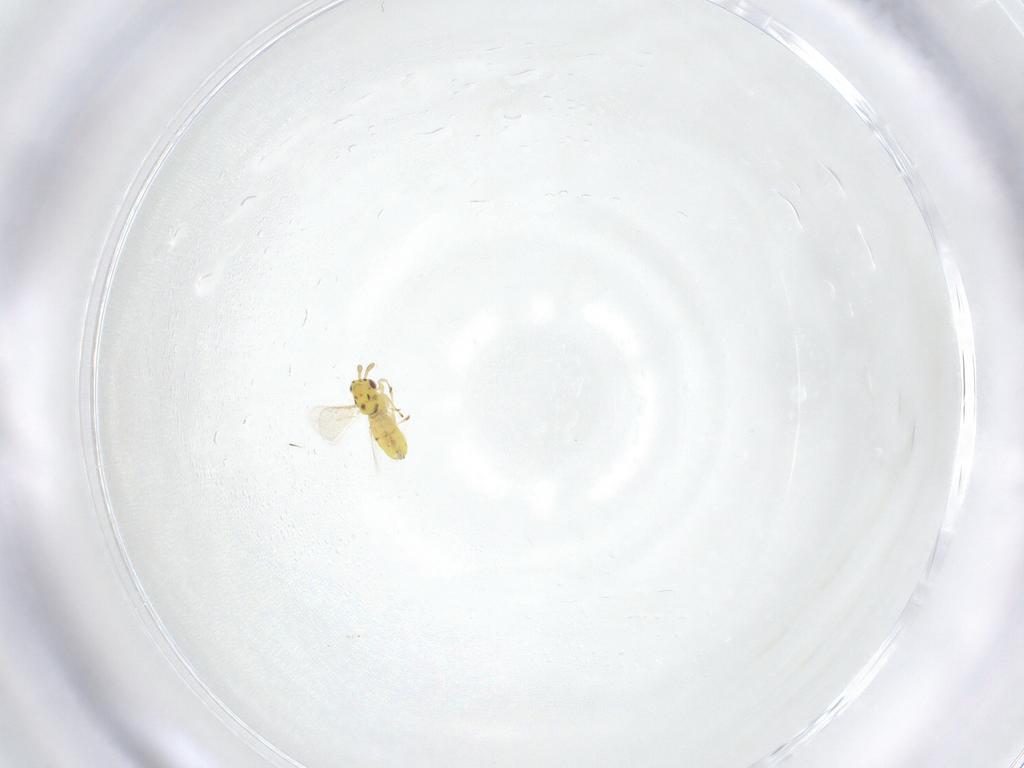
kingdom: Animalia
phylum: Arthropoda
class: Insecta
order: Hymenoptera
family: Eulophidae
